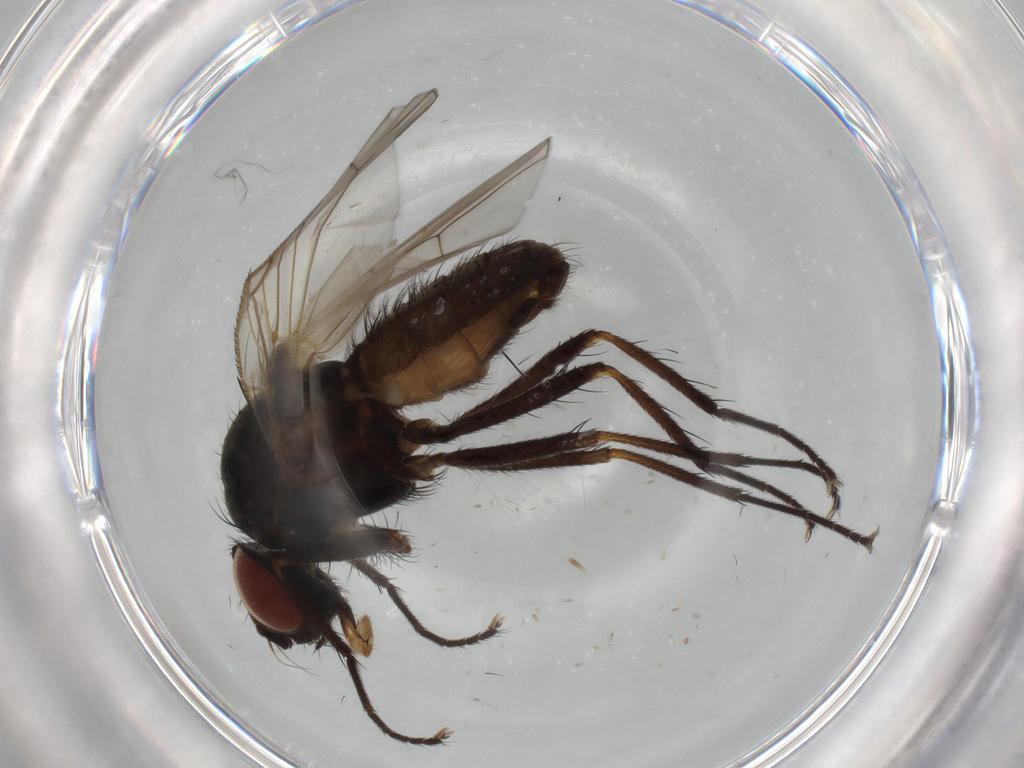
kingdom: Animalia
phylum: Arthropoda
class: Insecta
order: Diptera
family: Anthomyiidae
